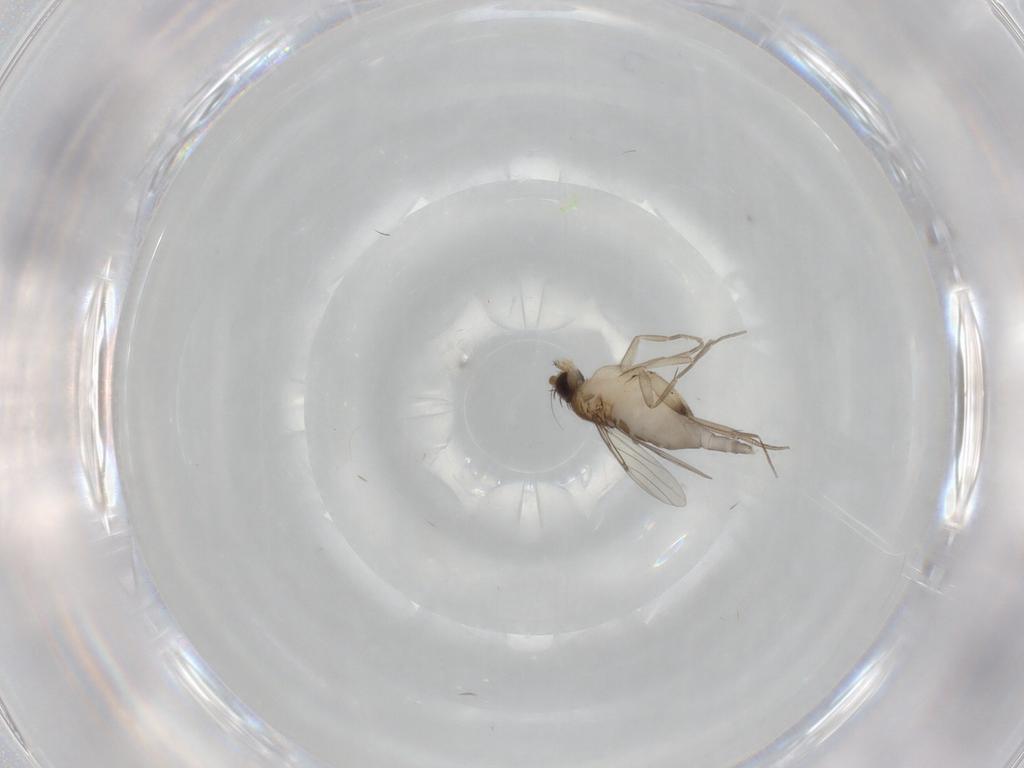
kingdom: Animalia
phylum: Arthropoda
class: Insecta
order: Diptera
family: Phoridae
